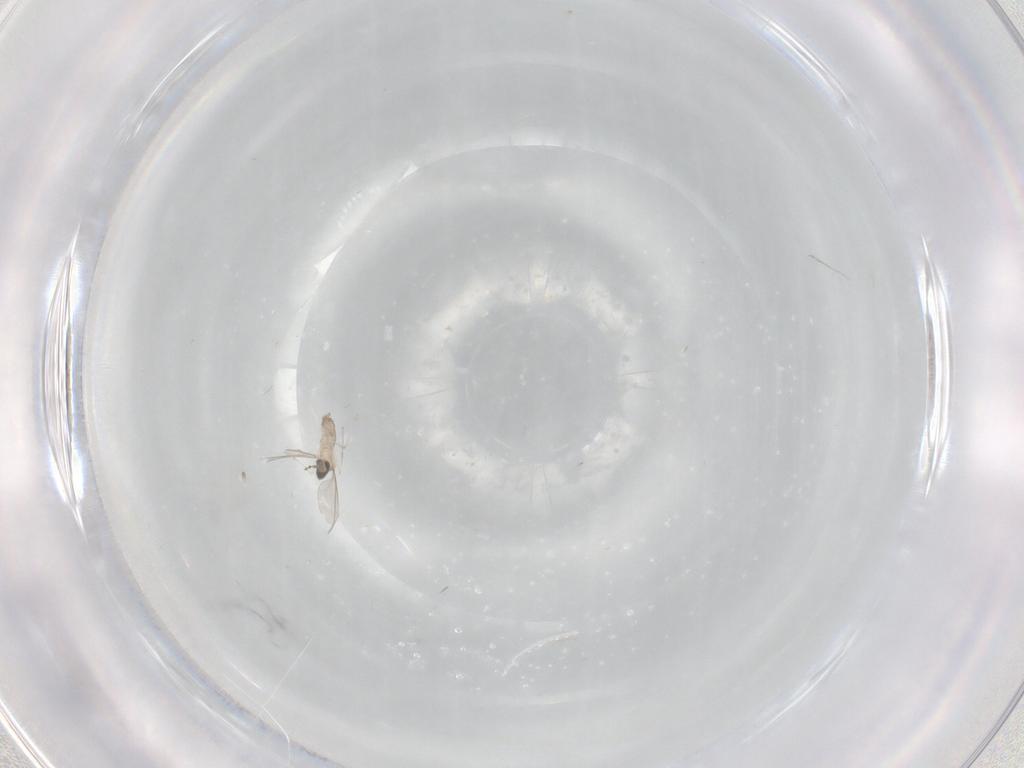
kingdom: Animalia
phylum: Arthropoda
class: Insecta
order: Diptera
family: Cecidomyiidae
